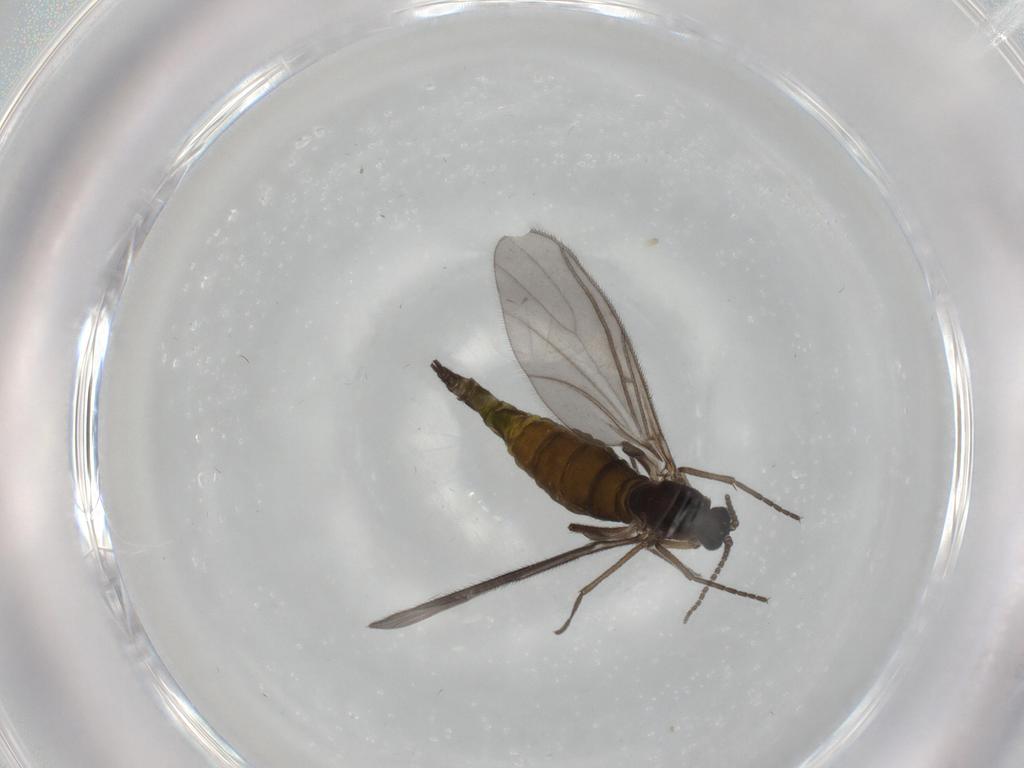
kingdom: Animalia
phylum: Arthropoda
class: Insecta
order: Diptera
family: Sciaridae
